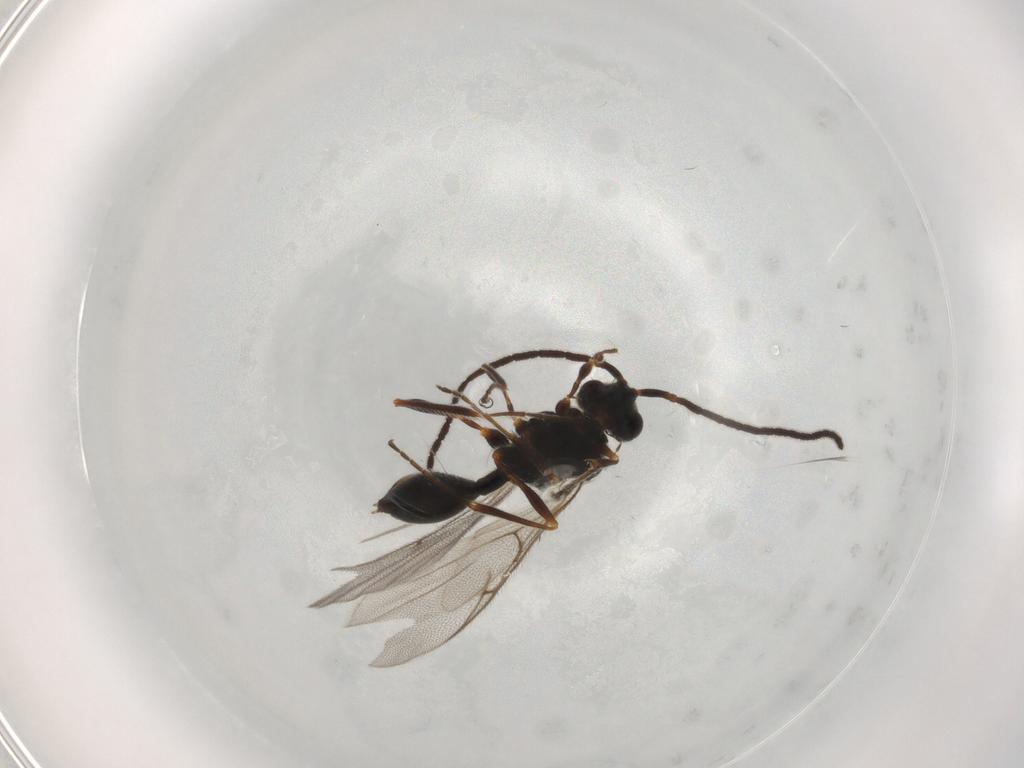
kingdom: Animalia
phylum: Arthropoda
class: Insecta
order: Hymenoptera
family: Diapriidae
